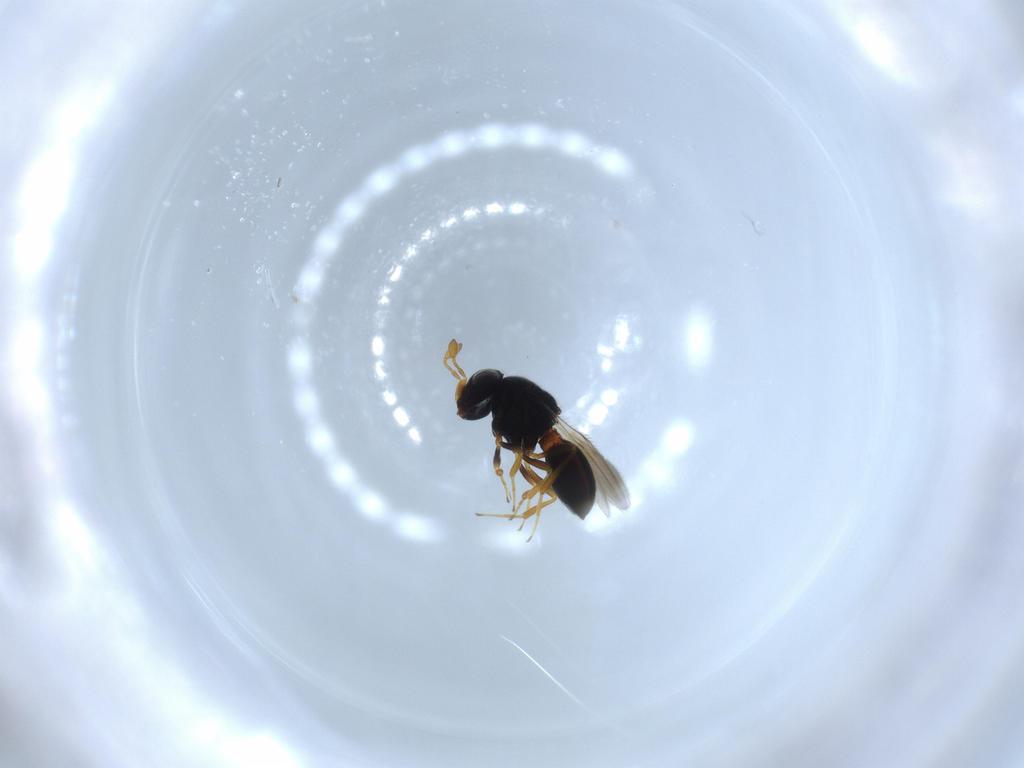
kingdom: Animalia
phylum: Arthropoda
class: Insecta
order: Hymenoptera
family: Scelionidae
